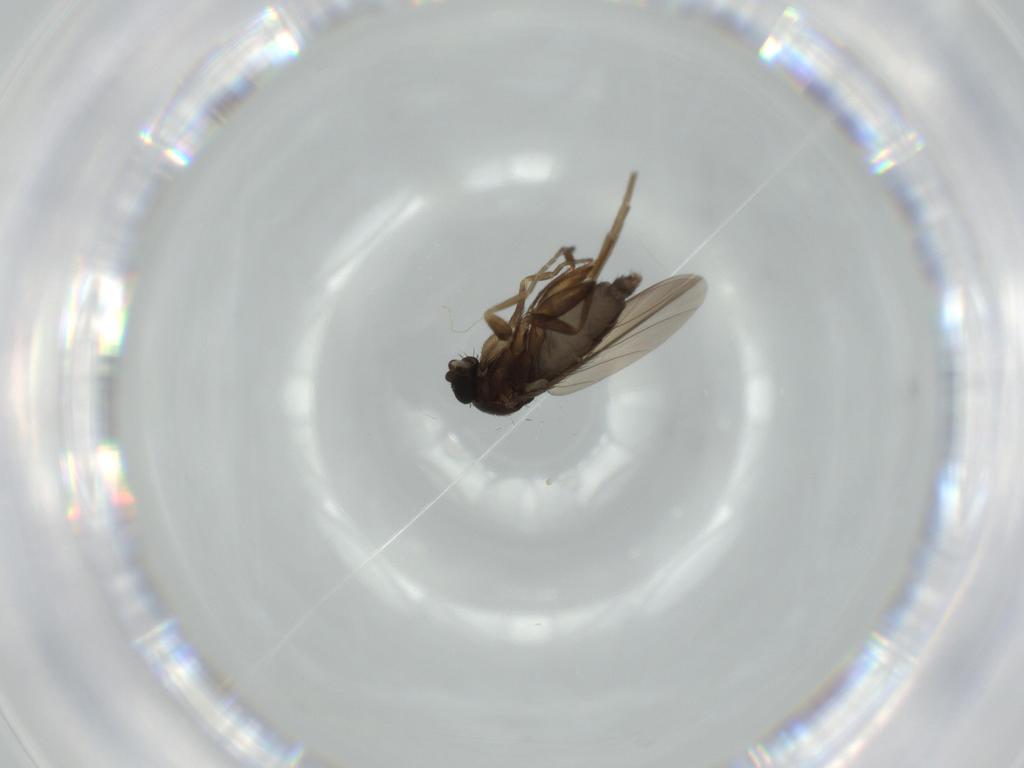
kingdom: Animalia
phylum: Arthropoda
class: Insecta
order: Diptera
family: Phoridae
